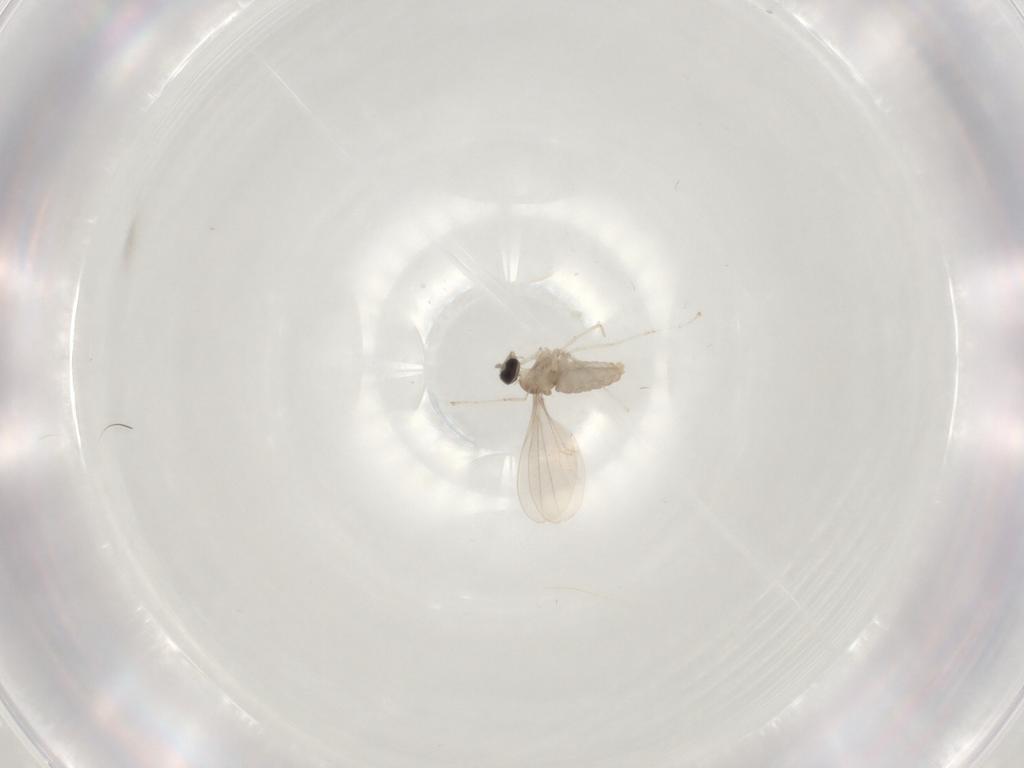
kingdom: Animalia
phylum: Arthropoda
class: Insecta
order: Diptera
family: Cecidomyiidae
